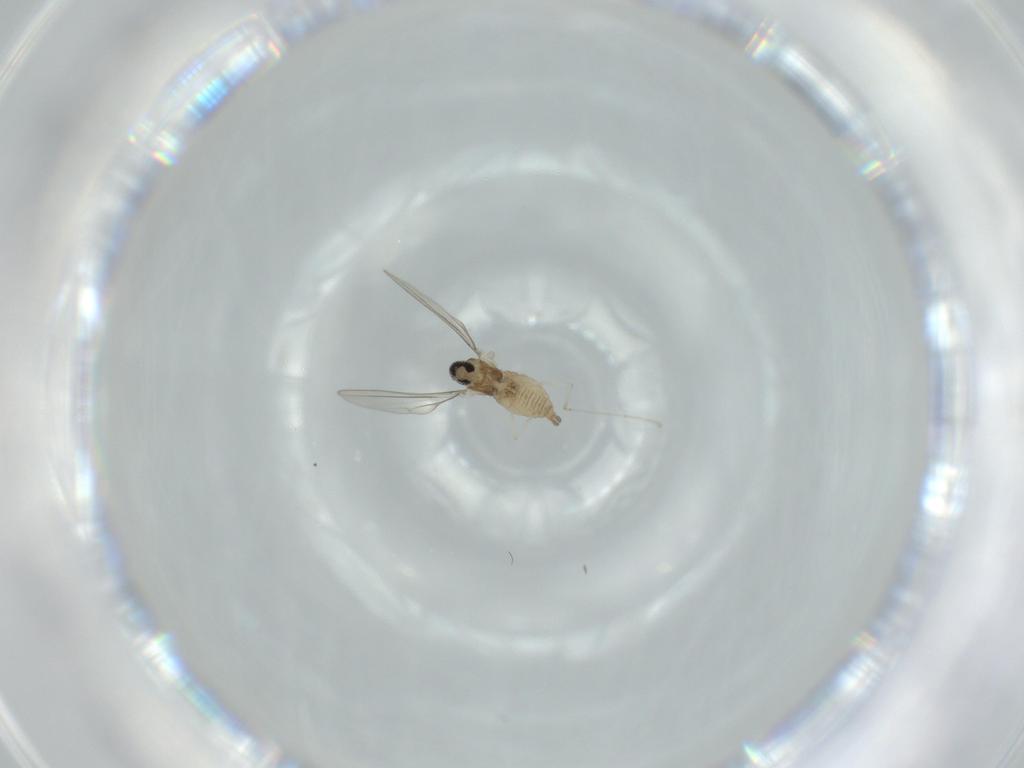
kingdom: Animalia
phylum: Arthropoda
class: Insecta
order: Diptera
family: Cecidomyiidae
